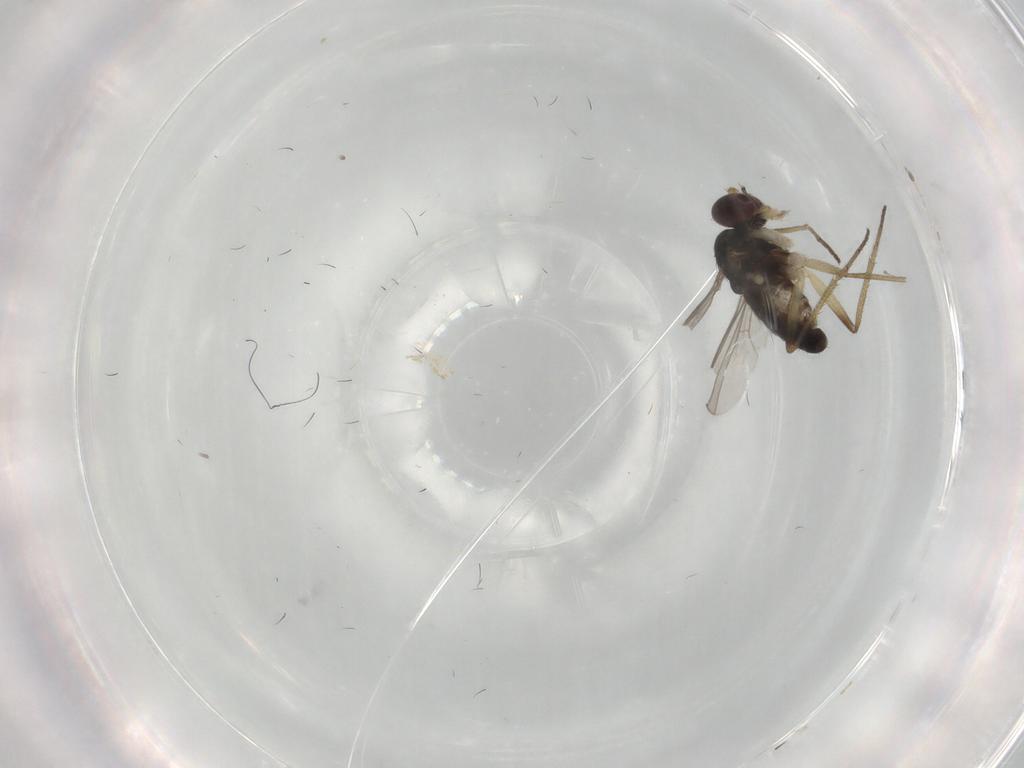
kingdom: Animalia
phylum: Arthropoda
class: Insecta
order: Diptera
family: Dolichopodidae
